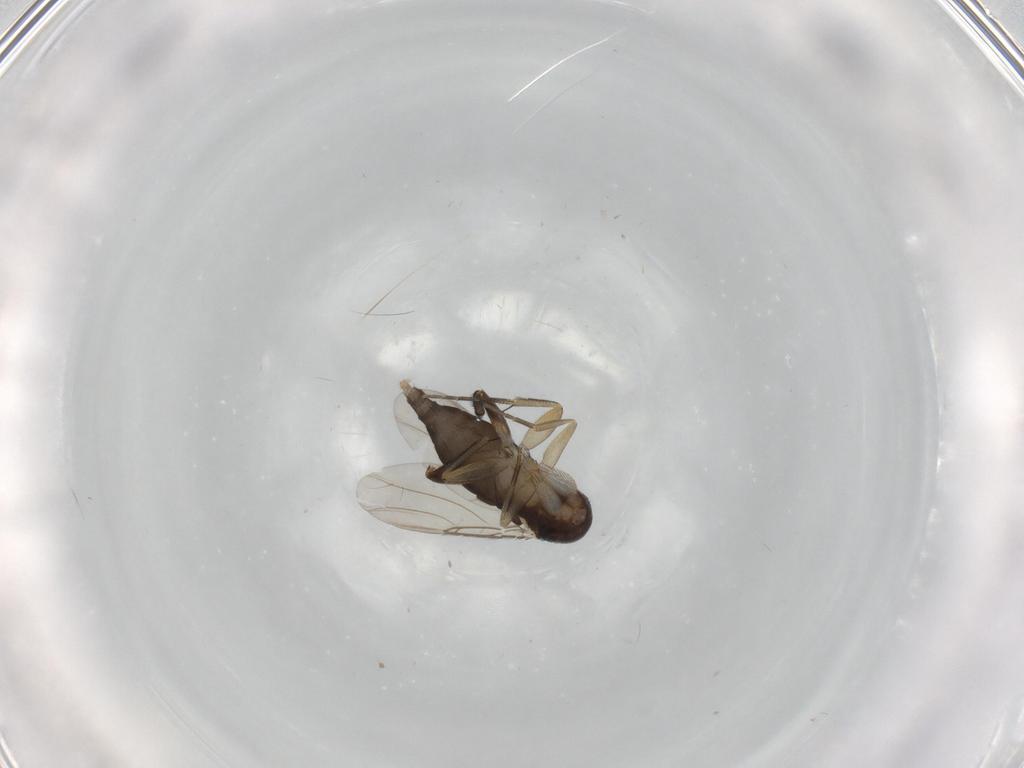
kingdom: Animalia
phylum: Arthropoda
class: Insecta
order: Diptera
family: Phoridae
